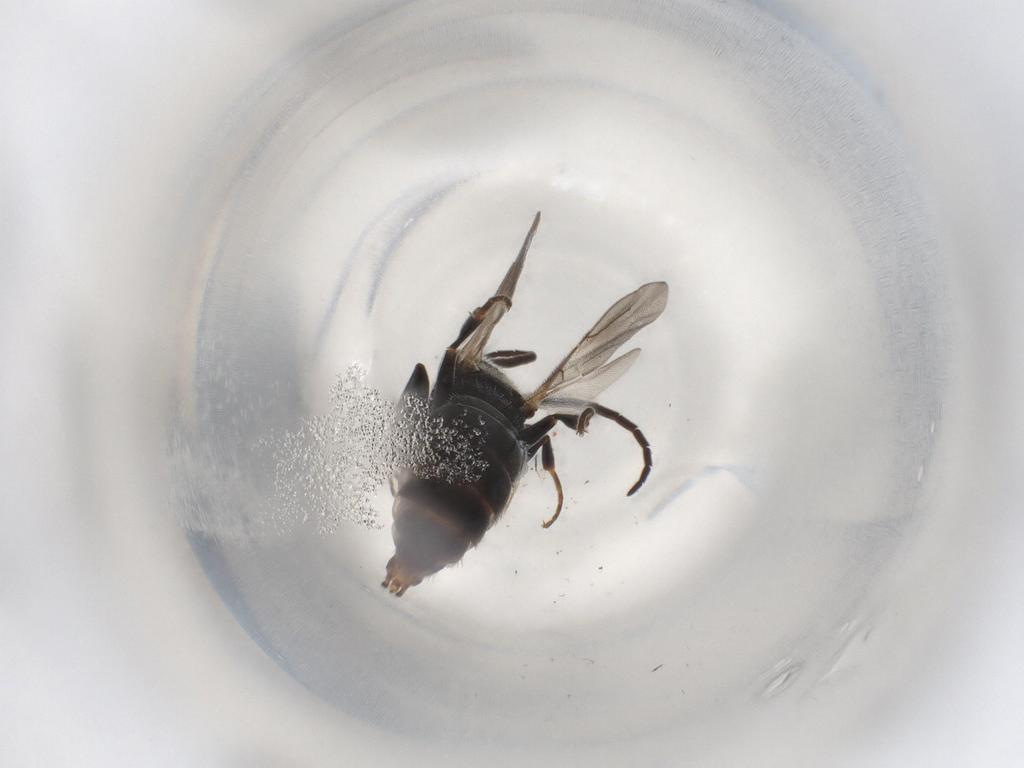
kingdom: Animalia
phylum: Arthropoda
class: Insecta
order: Hymenoptera
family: Bethylidae
